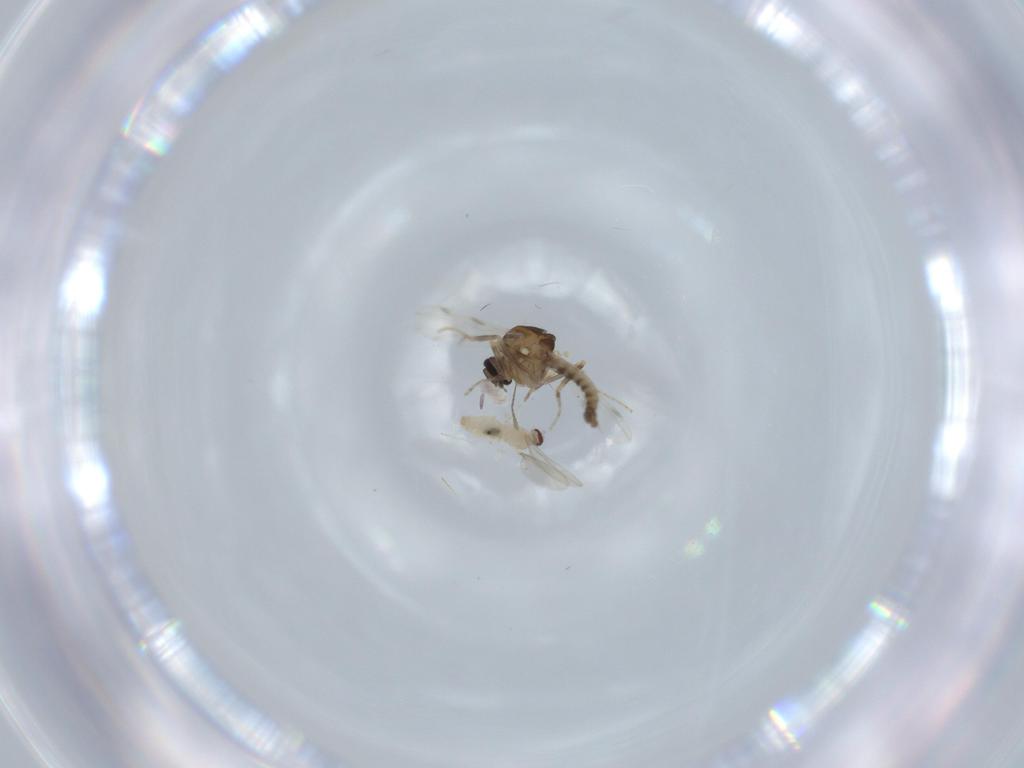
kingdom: Animalia
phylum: Arthropoda
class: Insecta
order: Diptera
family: Ceratopogonidae
